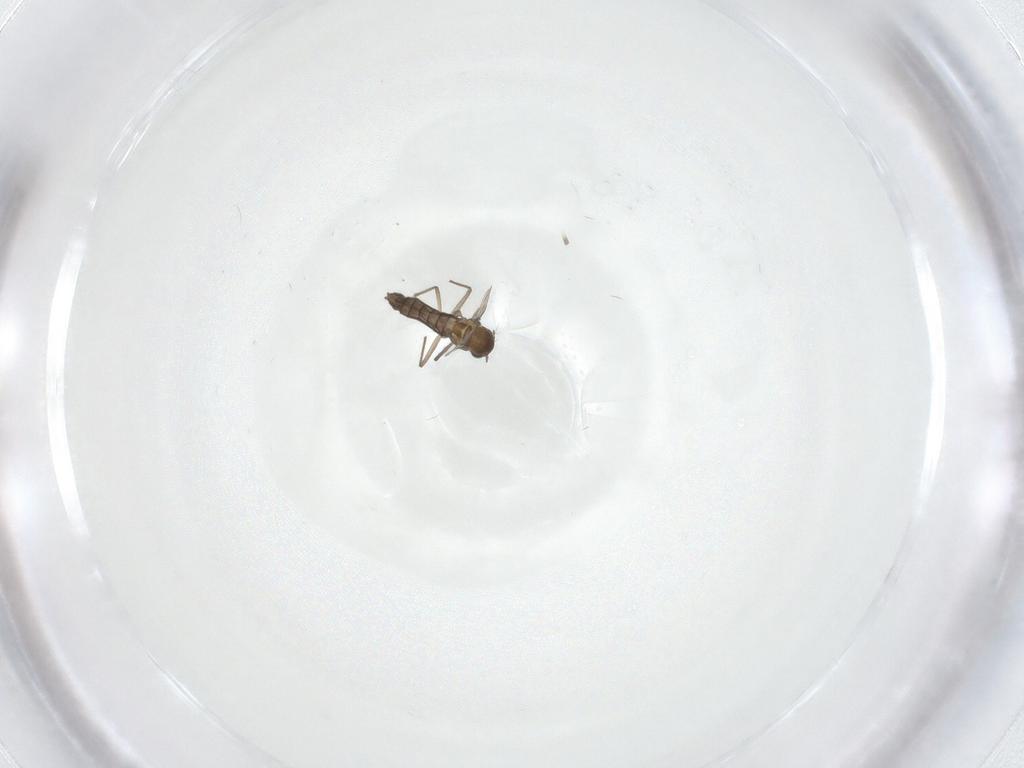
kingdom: Animalia
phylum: Arthropoda
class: Insecta
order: Diptera
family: Chironomidae
